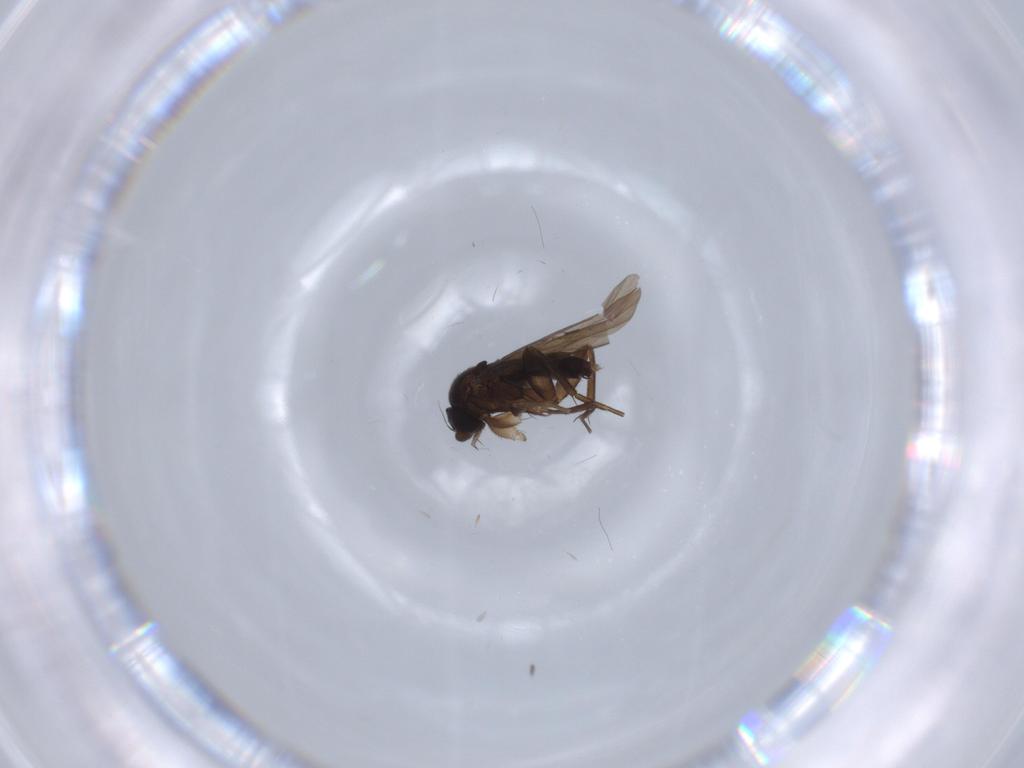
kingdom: Animalia
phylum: Arthropoda
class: Insecta
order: Diptera
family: Phoridae
